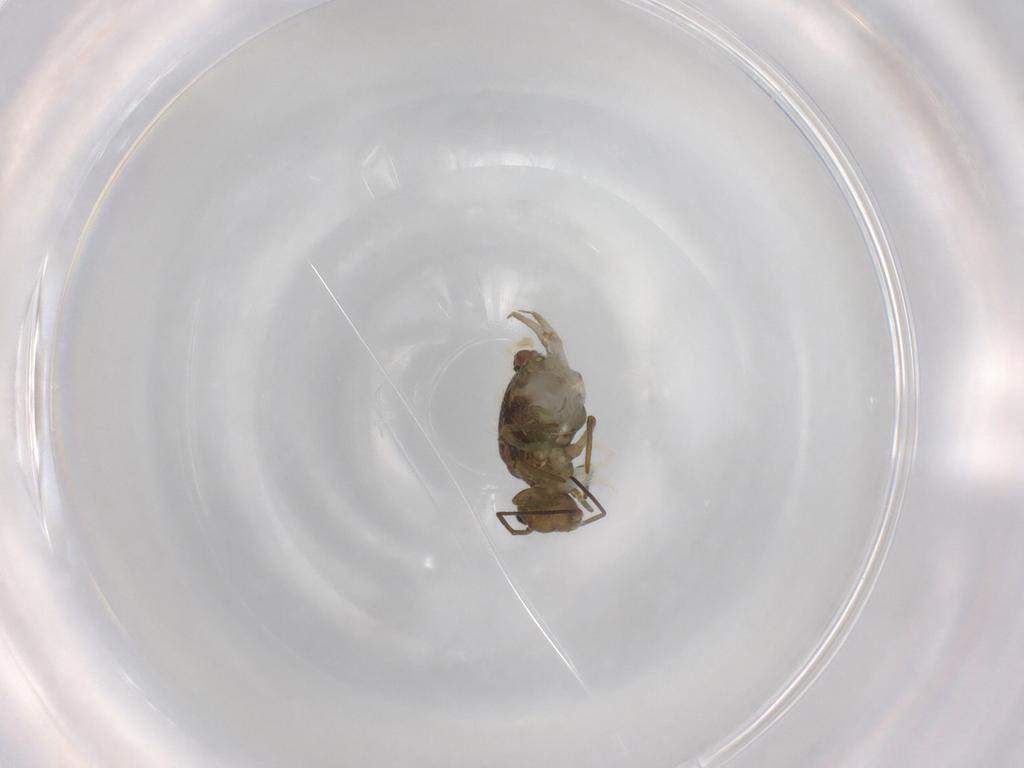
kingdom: Animalia
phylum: Arthropoda
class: Collembola
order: Symphypleona
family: Sminthuridae
